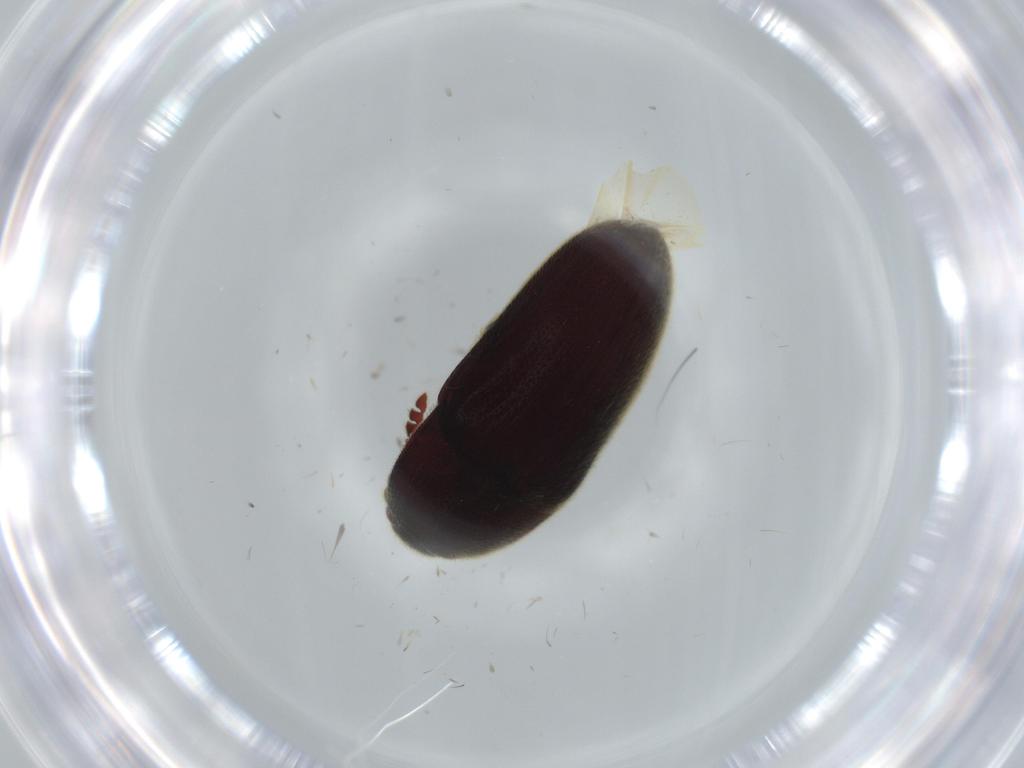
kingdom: Animalia
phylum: Arthropoda
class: Insecta
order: Coleoptera
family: Throscidae
